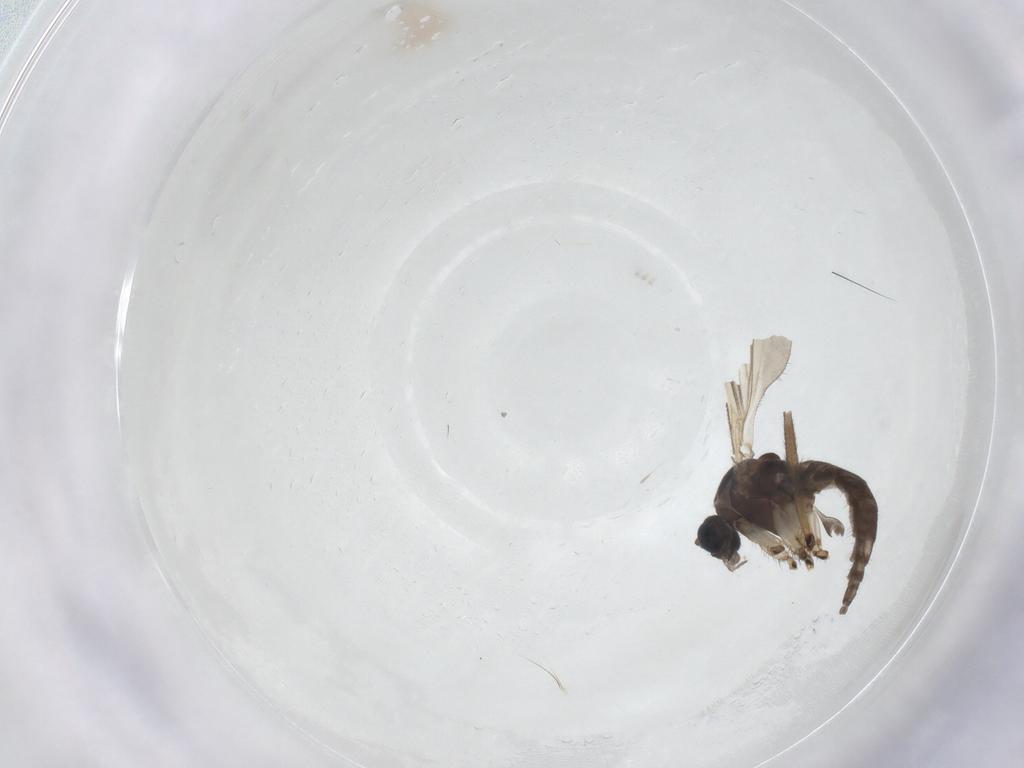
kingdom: Animalia
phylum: Arthropoda
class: Insecta
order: Diptera
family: Sciaridae
